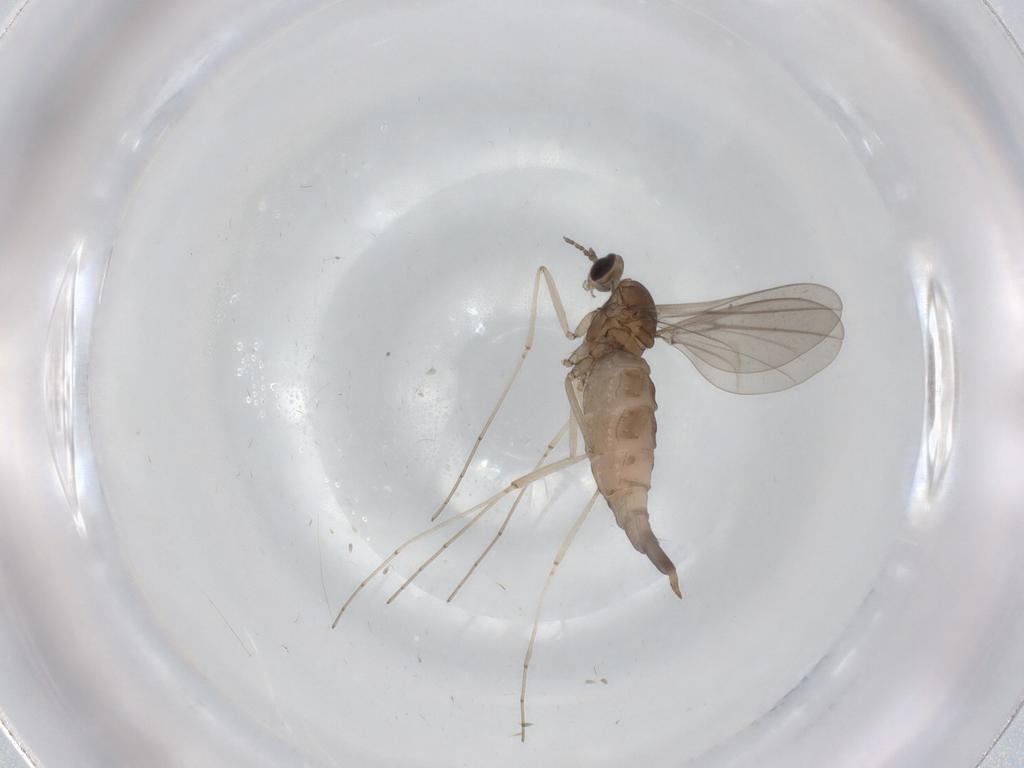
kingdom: Animalia
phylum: Arthropoda
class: Insecta
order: Diptera
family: Cecidomyiidae
